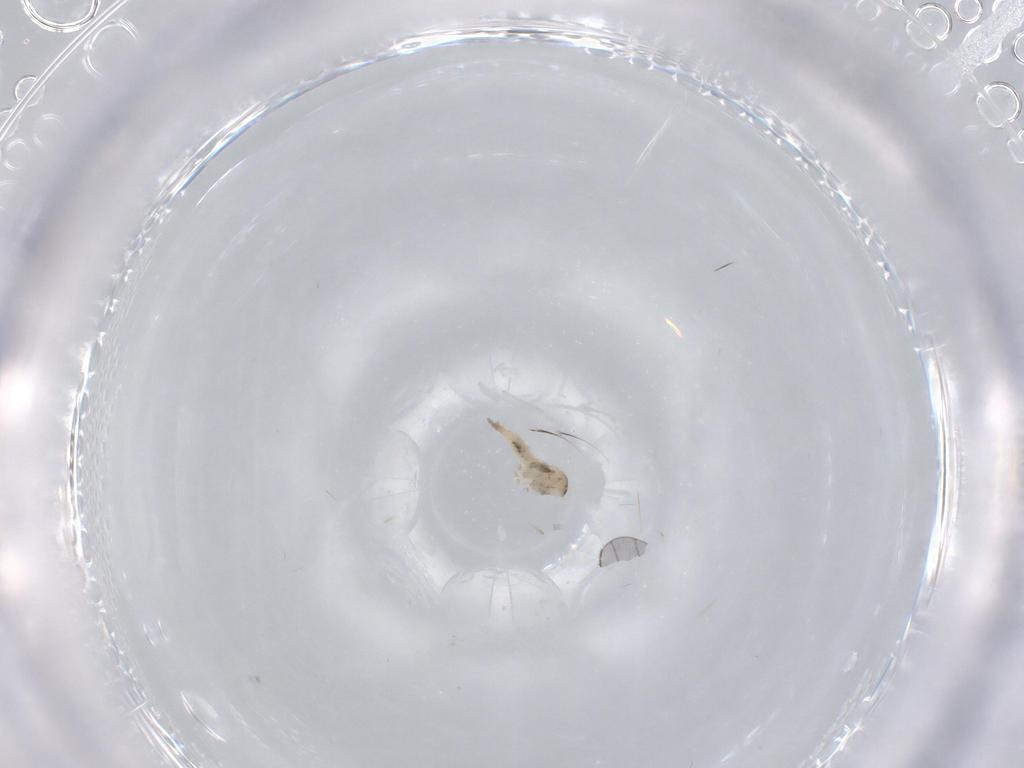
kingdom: Animalia
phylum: Arthropoda
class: Insecta
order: Diptera
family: Cecidomyiidae
